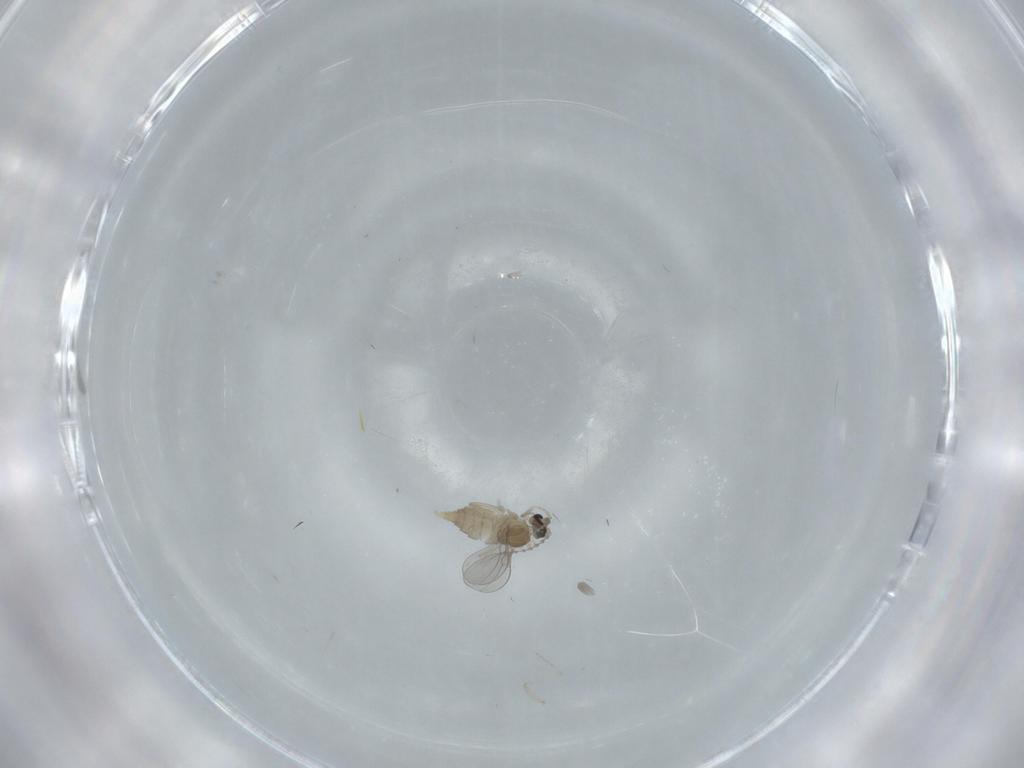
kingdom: Animalia
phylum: Arthropoda
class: Insecta
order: Diptera
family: Cecidomyiidae
